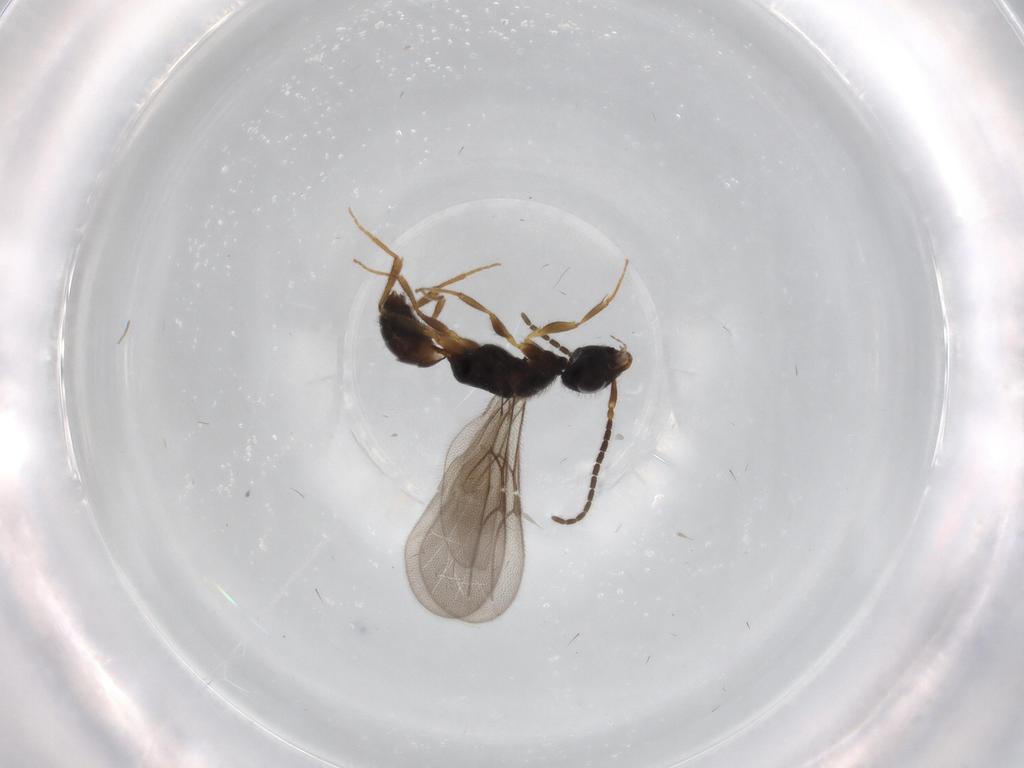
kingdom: Animalia
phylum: Arthropoda
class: Insecta
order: Hymenoptera
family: Bethylidae
